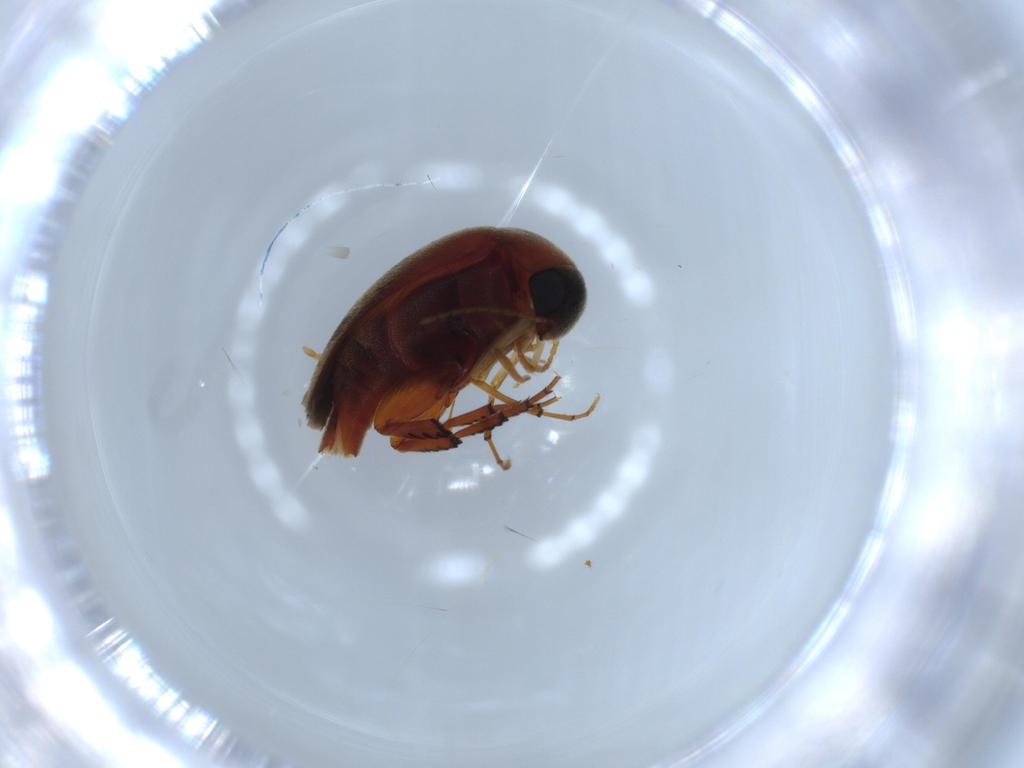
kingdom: Animalia
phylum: Arthropoda
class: Insecta
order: Coleoptera
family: Mordellidae
